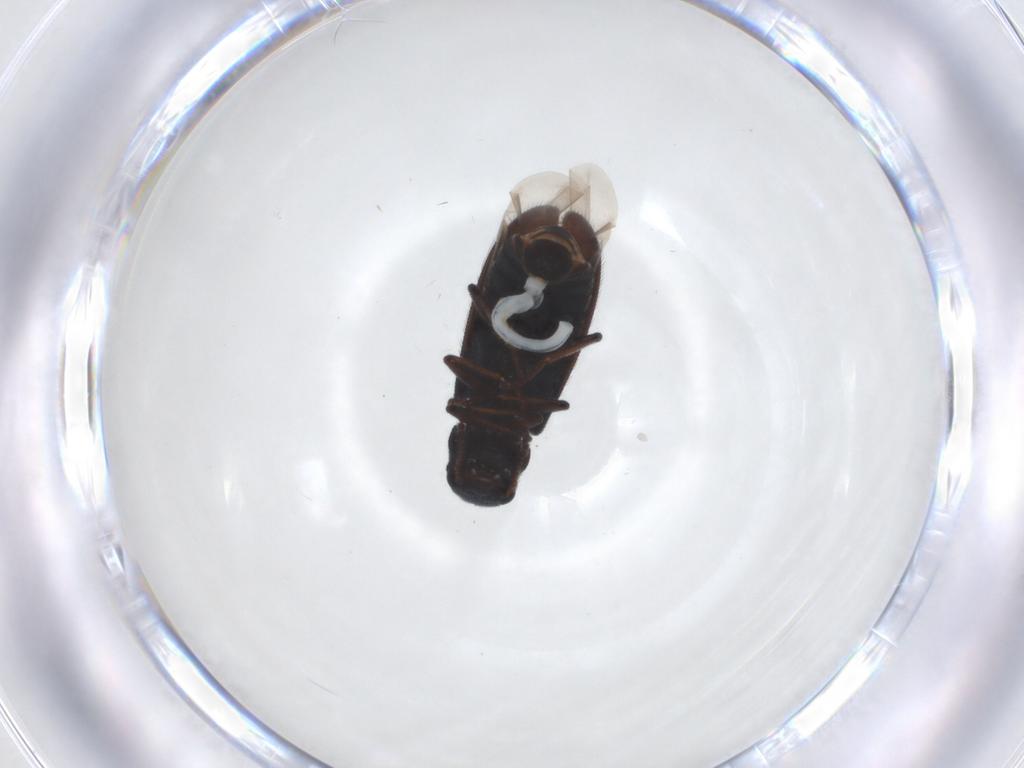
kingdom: Animalia
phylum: Arthropoda
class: Insecta
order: Coleoptera
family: Melyridae
